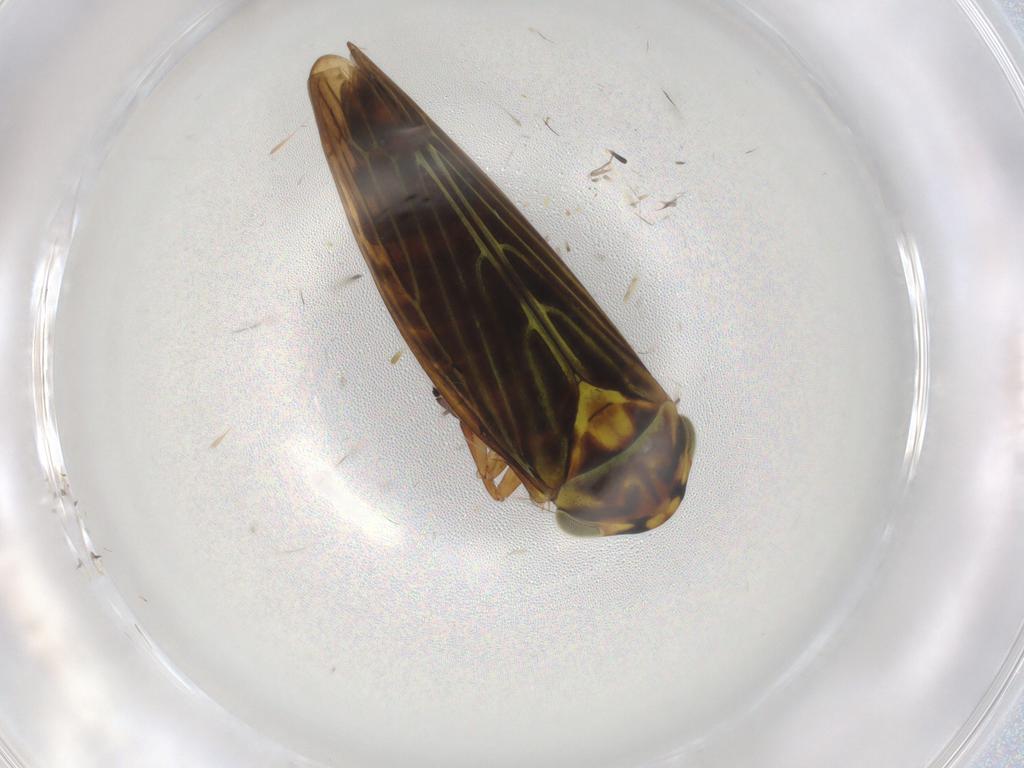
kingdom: Animalia
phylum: Arthropoda
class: Insecta
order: Hemiptera
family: Cicadellidae
